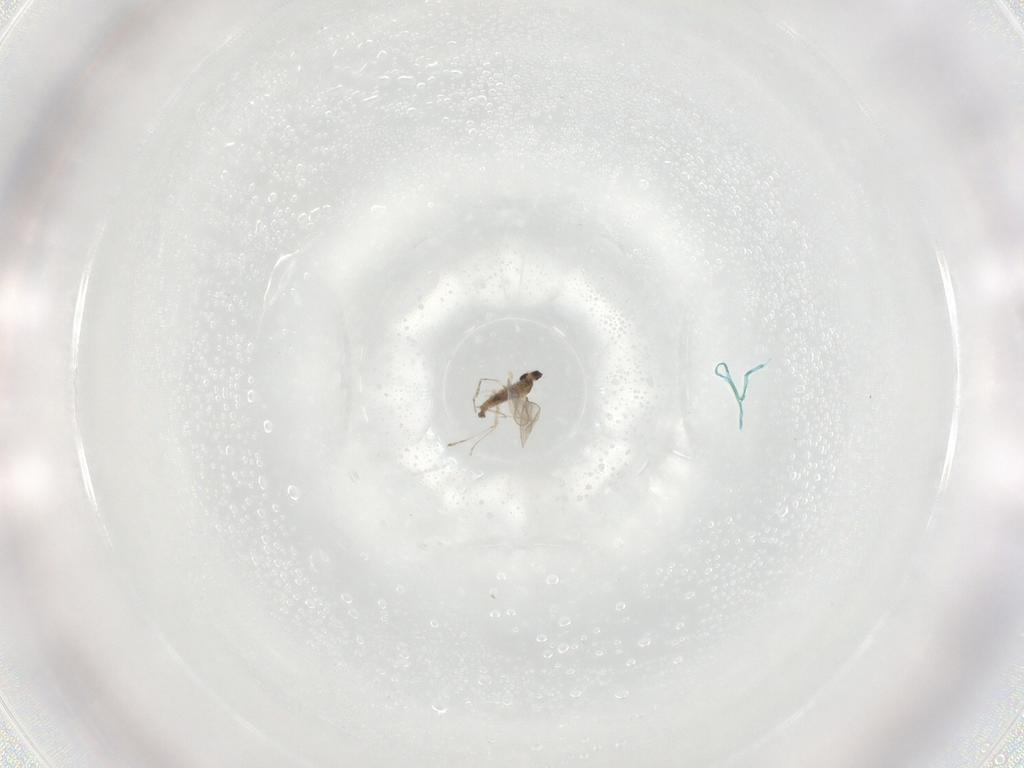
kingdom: Animalia
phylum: Arthropoda
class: Insecta
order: Diptera
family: Cecidomyiidae
